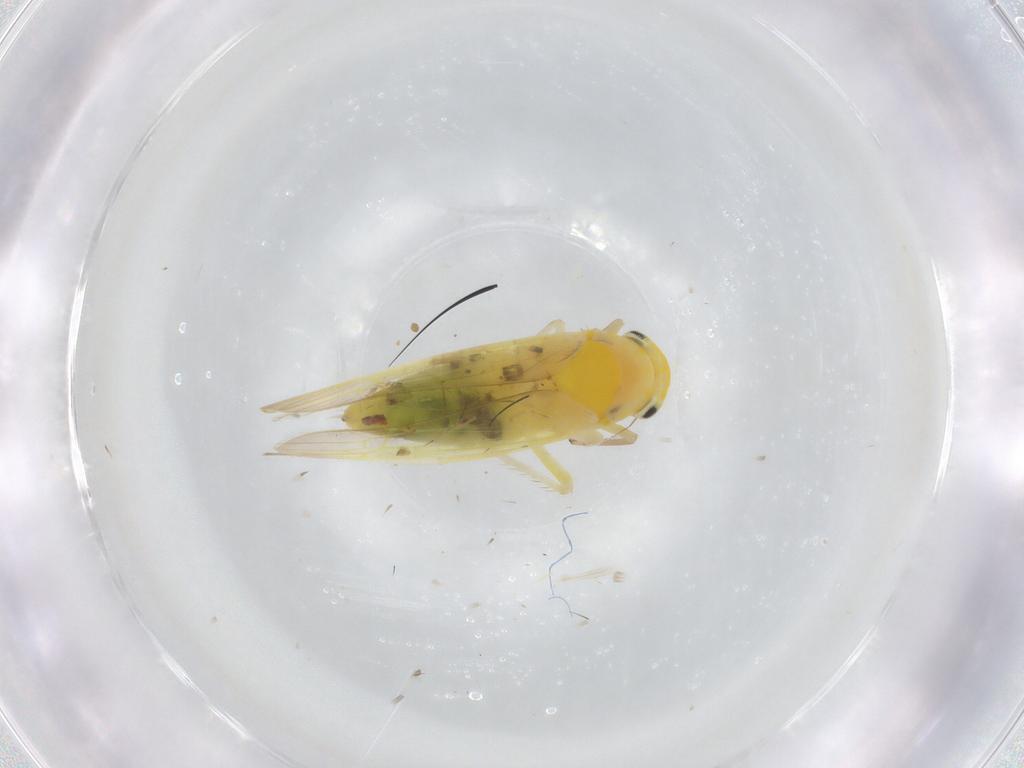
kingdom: Animalia
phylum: Arthropoda
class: Insecta
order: Hemiptera
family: Cicadellidae
